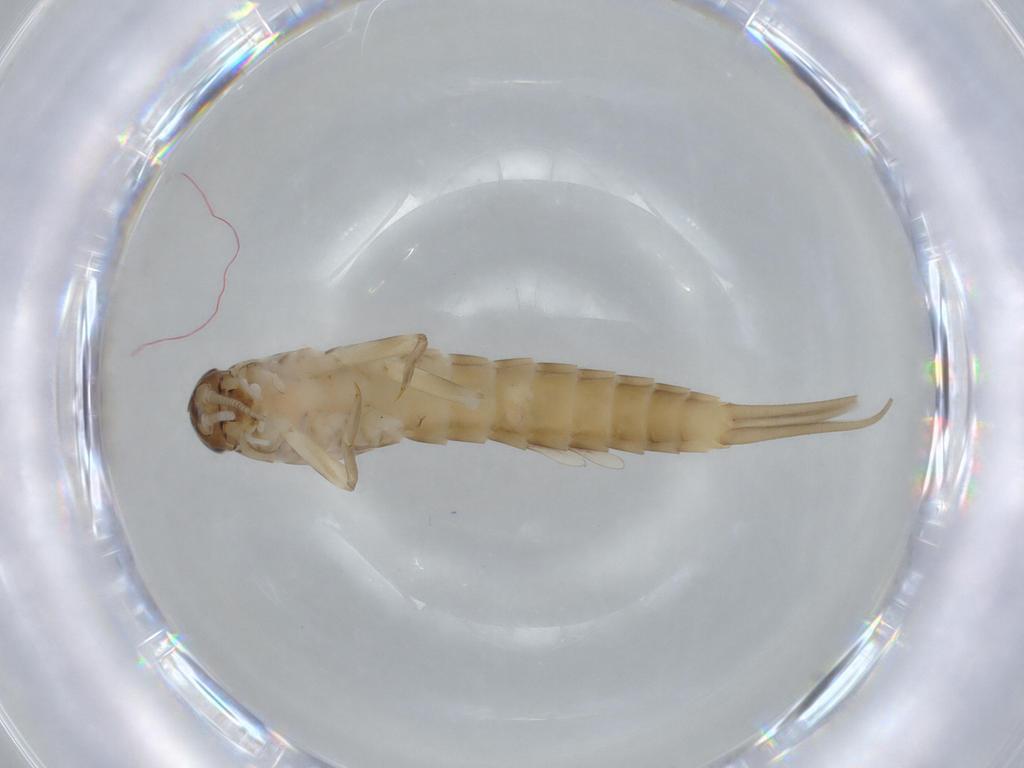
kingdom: Animalia
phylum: Arthropoda
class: Insecta
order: Ephemeroptera
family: Baetidae
